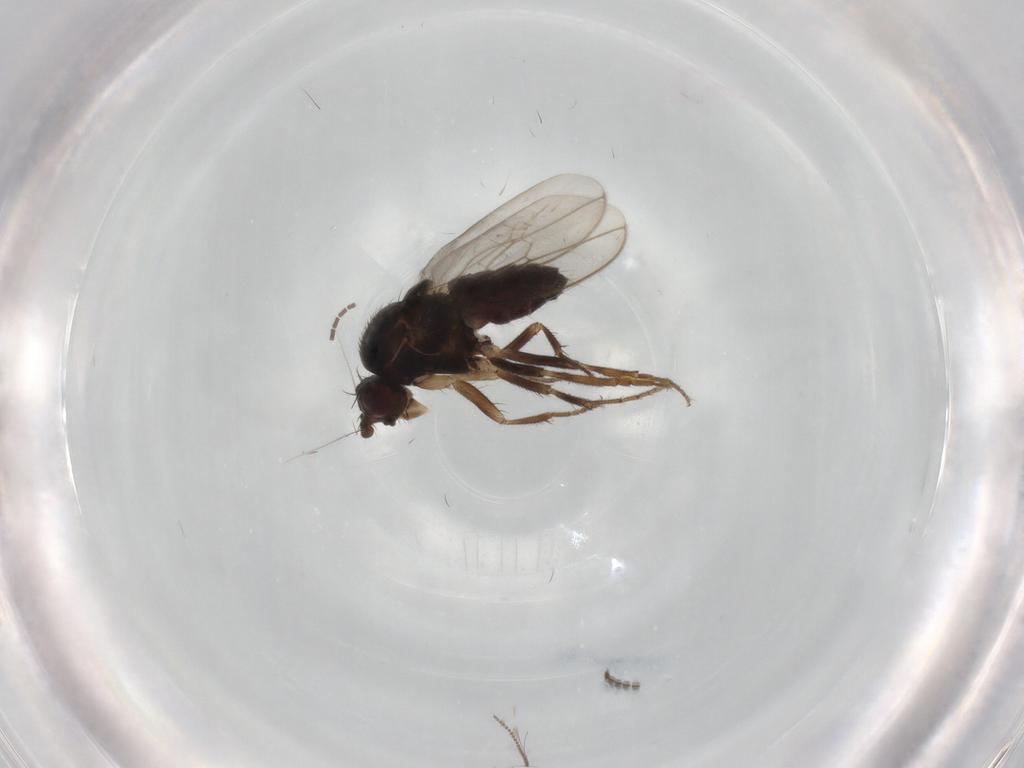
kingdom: Animalia
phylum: Arthropoda
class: Insecta
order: Diptera
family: Sphaeroceridae
